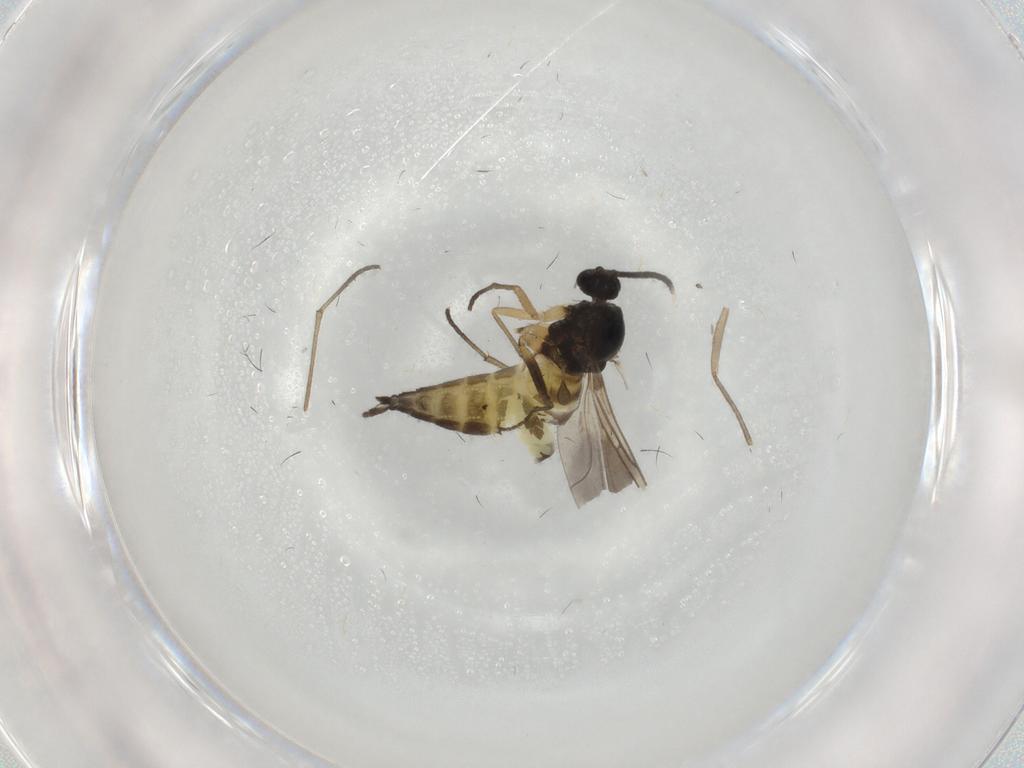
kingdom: Animalia
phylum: Arthropoda
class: Insecta
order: Diptera
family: Sciaridae
